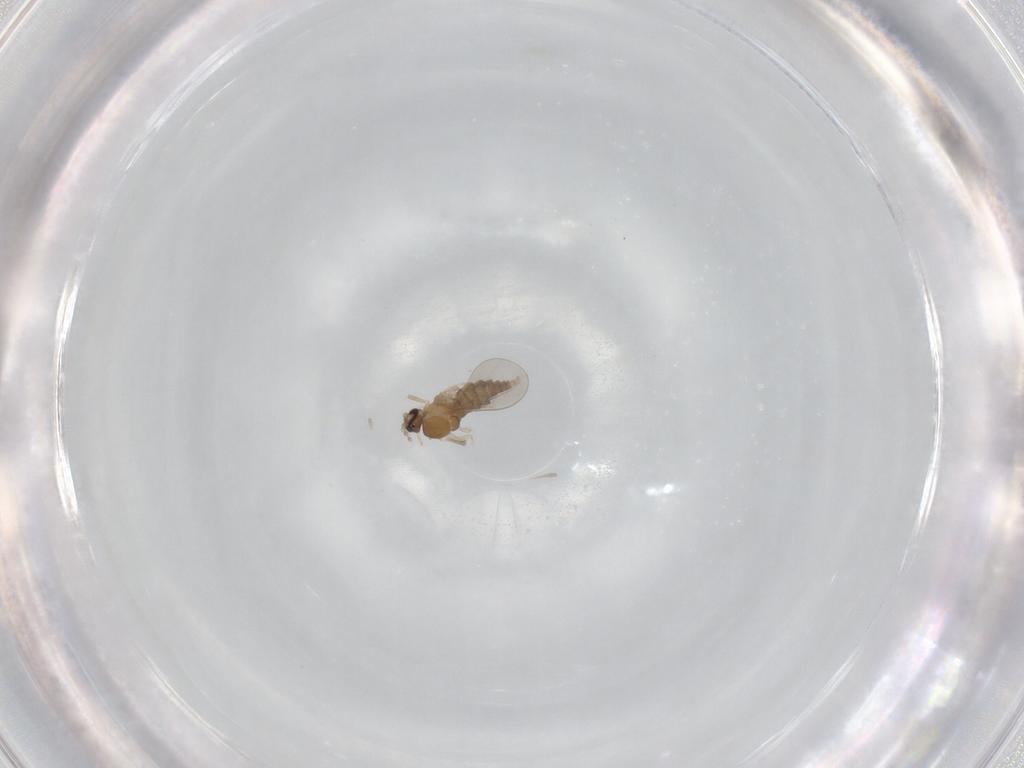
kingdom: Animalia
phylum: Arthropoda
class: Insecta
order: Diptera
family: Cecidomyiidae
